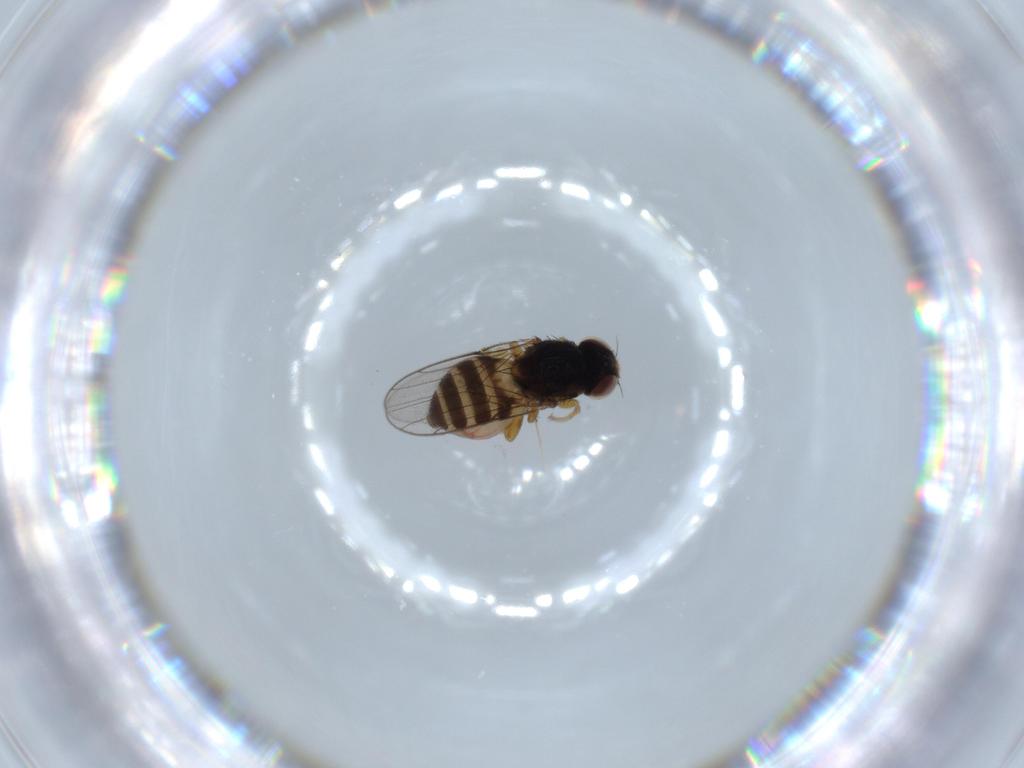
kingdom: Animalia
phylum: Arthropoda
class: Insecta
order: Diptera
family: Chloropidae
